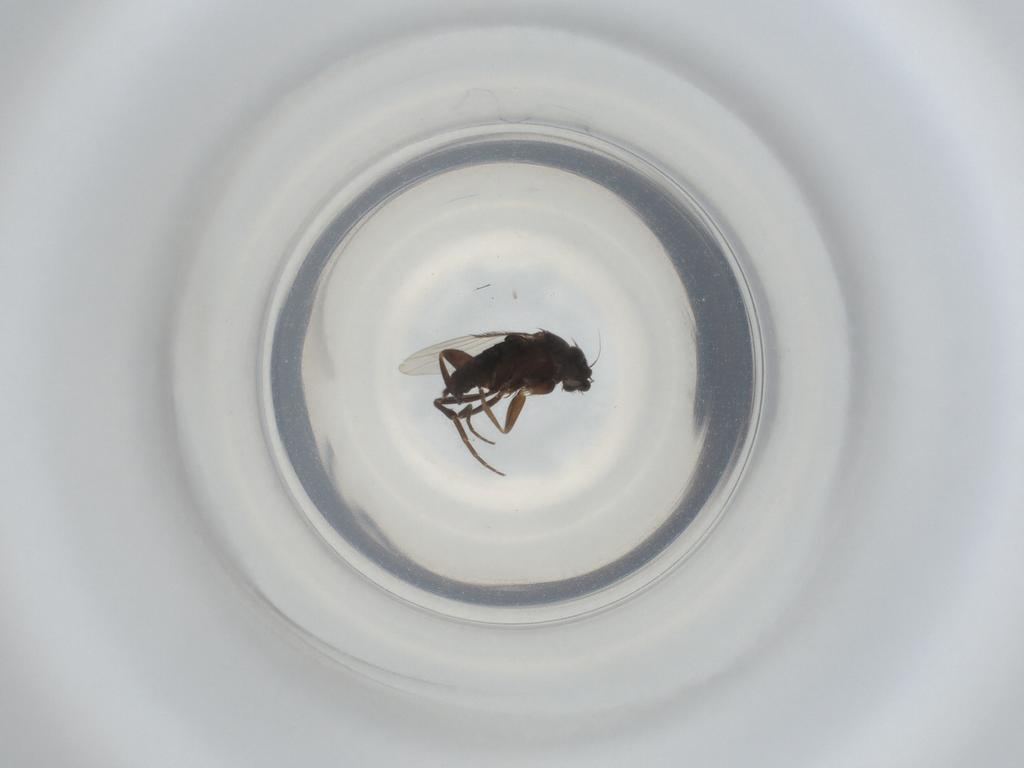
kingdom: Animalia
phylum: Arthropoda
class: Insecta
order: Diptera
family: Phoridae
